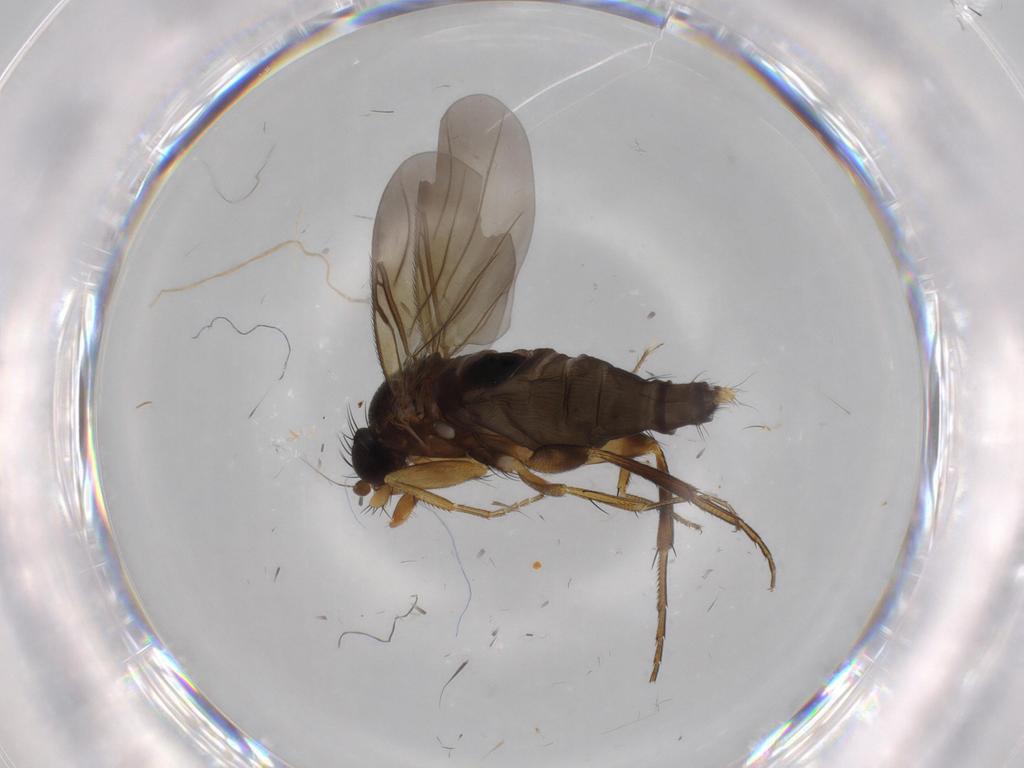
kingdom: Animalia
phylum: Arthropoda
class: Insecta
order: Diptera
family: Phoridae
